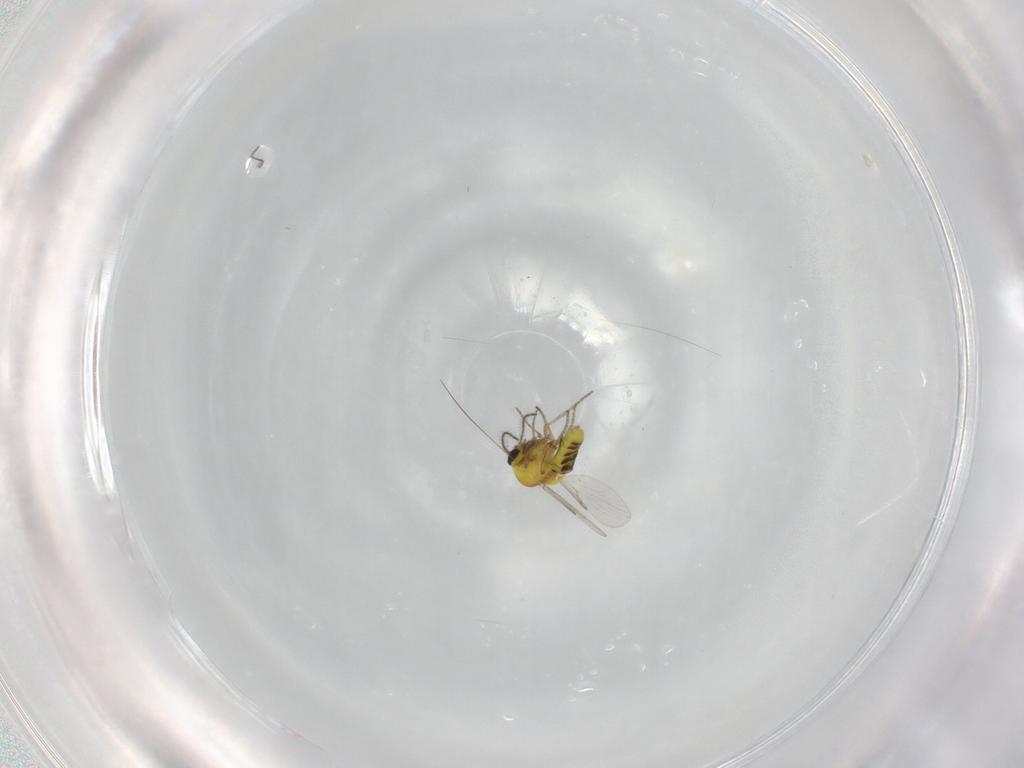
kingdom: Animalia
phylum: Arthropoda
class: Insecta
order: Diptera
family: Ceratopogonidae
